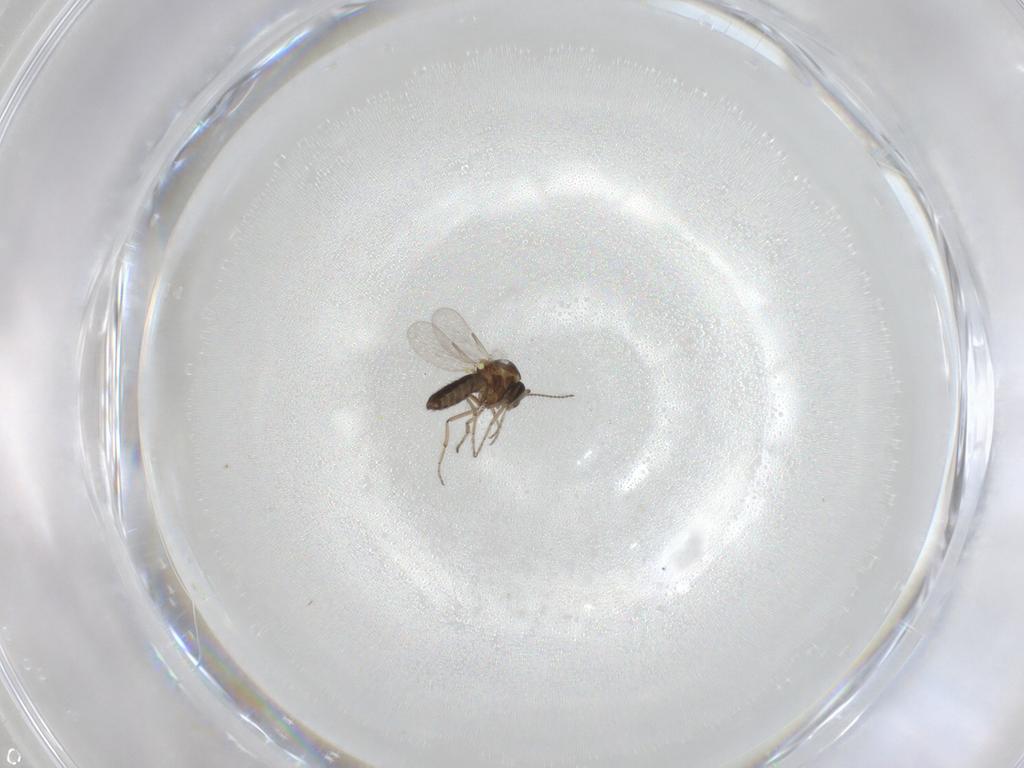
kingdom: Animalia
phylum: Arthropoda
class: Insecta
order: Diptera
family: Ceratopogonidae
